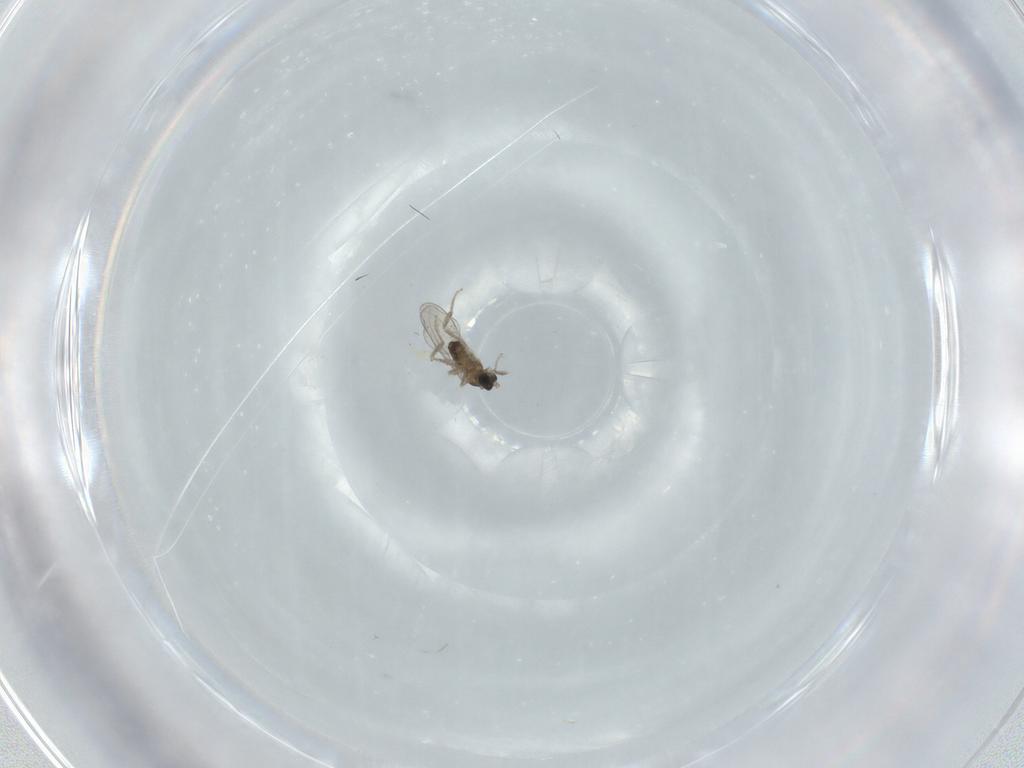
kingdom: Animalia
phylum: Arthropoda
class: Insecta
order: Diptera
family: Cecidomyiidae
